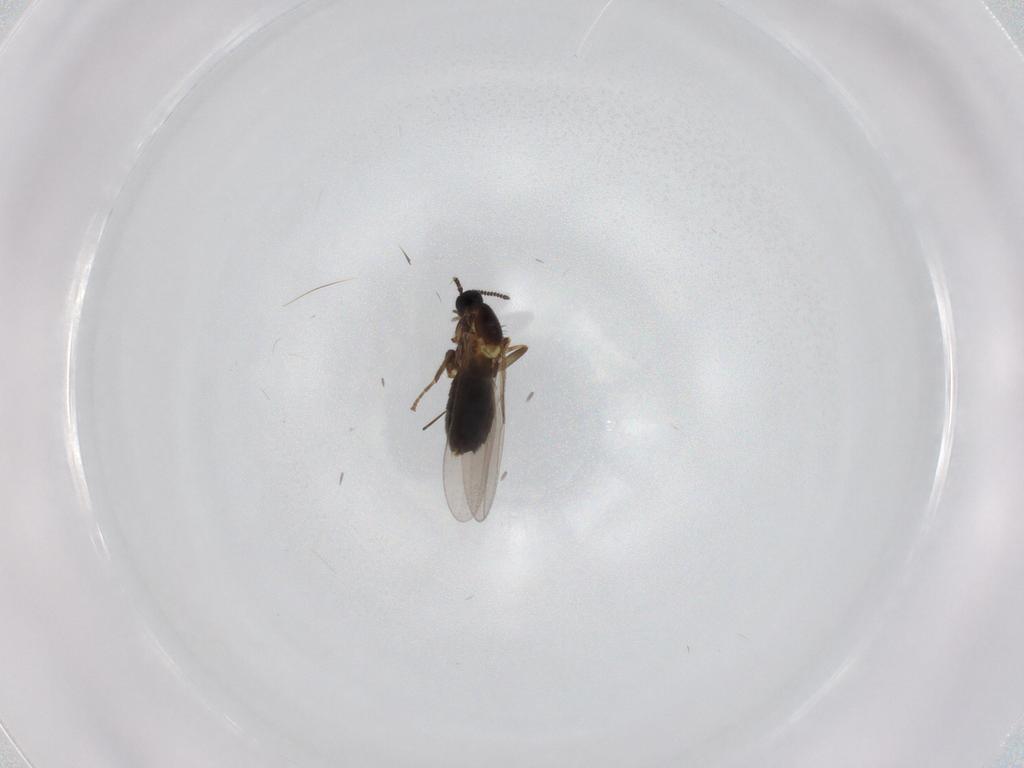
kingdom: Animalia
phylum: Arthropoda
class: Insecta
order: Diptera
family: Scatopsidae
